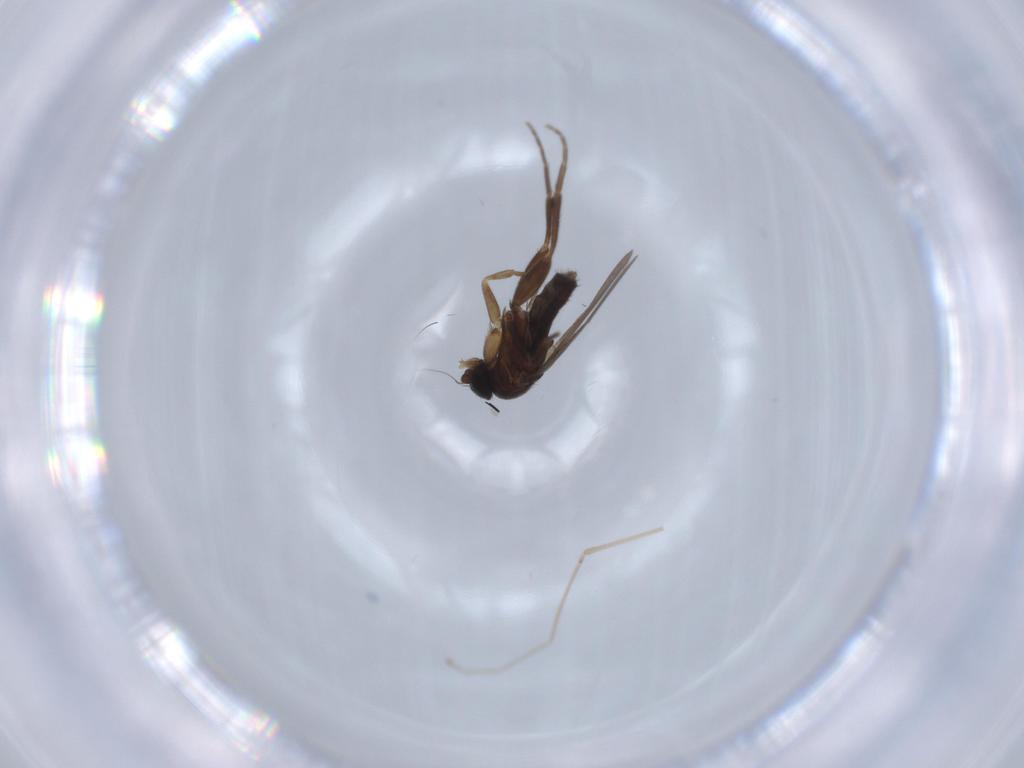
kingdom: Animalia
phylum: Arthropoda
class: Insecta
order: Diptera
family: Phoridae
